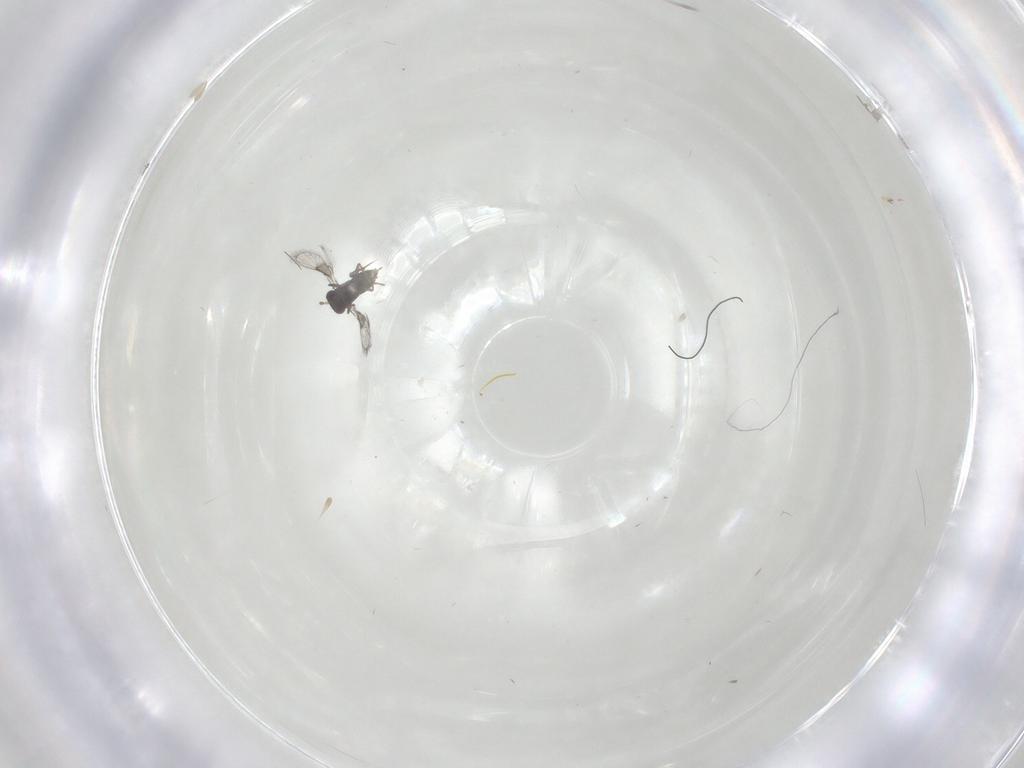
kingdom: Animalia
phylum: Arthropoda
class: Insecta
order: Hymenoptera
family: Trichogrammatidae
